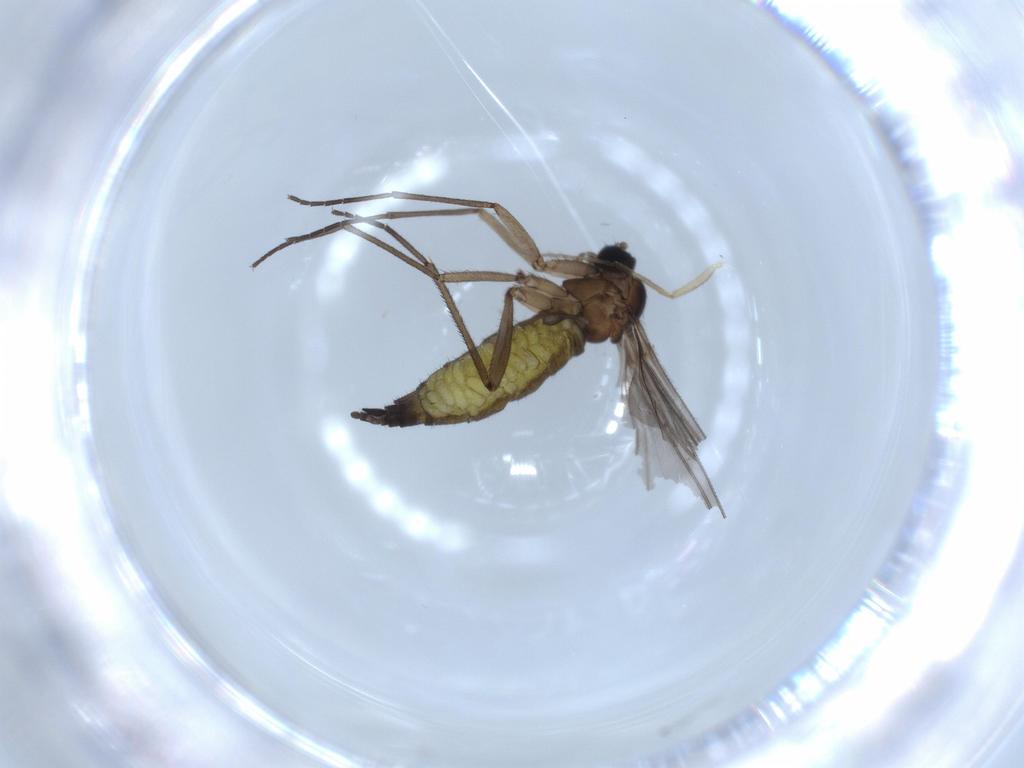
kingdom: Animalia
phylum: Arthropoda
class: Insecta
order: Diptera
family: Sciaridae
